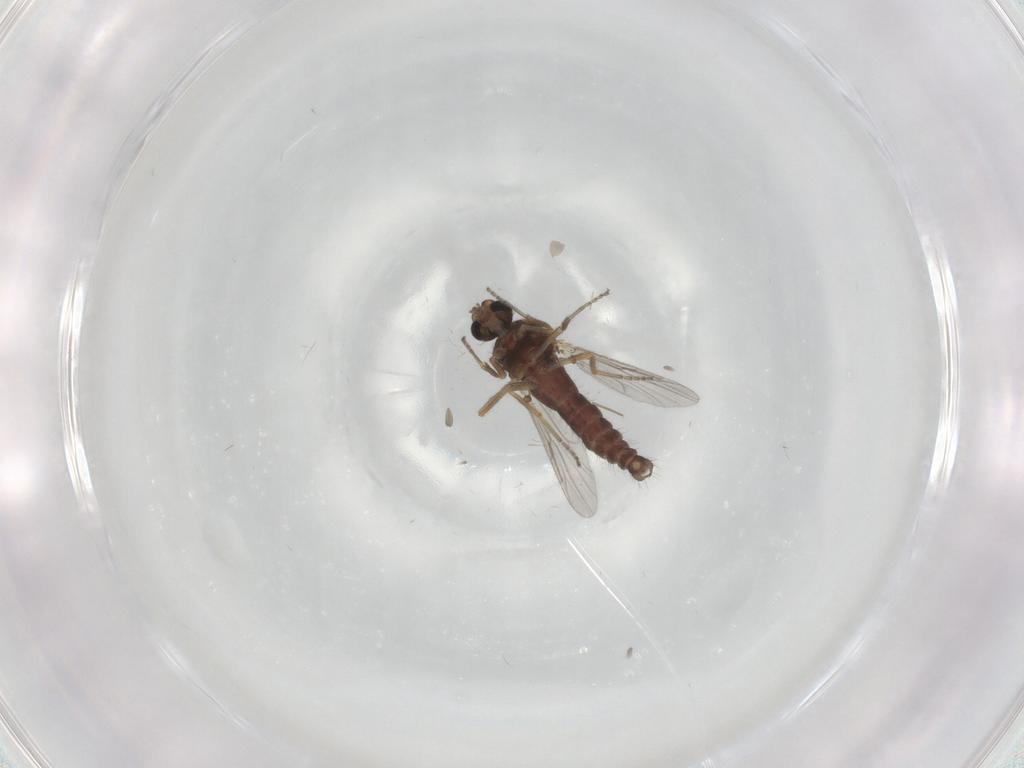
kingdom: Animalia
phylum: Arthropoda
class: Insecta
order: Diptera
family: Ceratopogonidae
